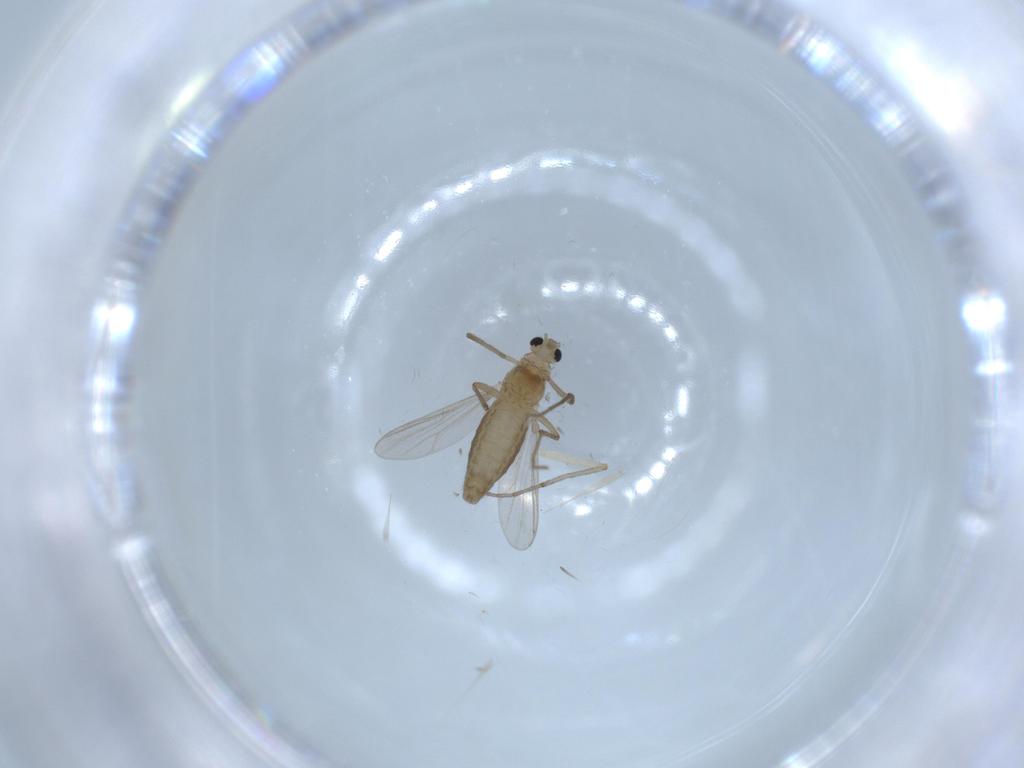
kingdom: Animalia
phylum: Arthropoda
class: Insecta
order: Diptera
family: Chironomidae
